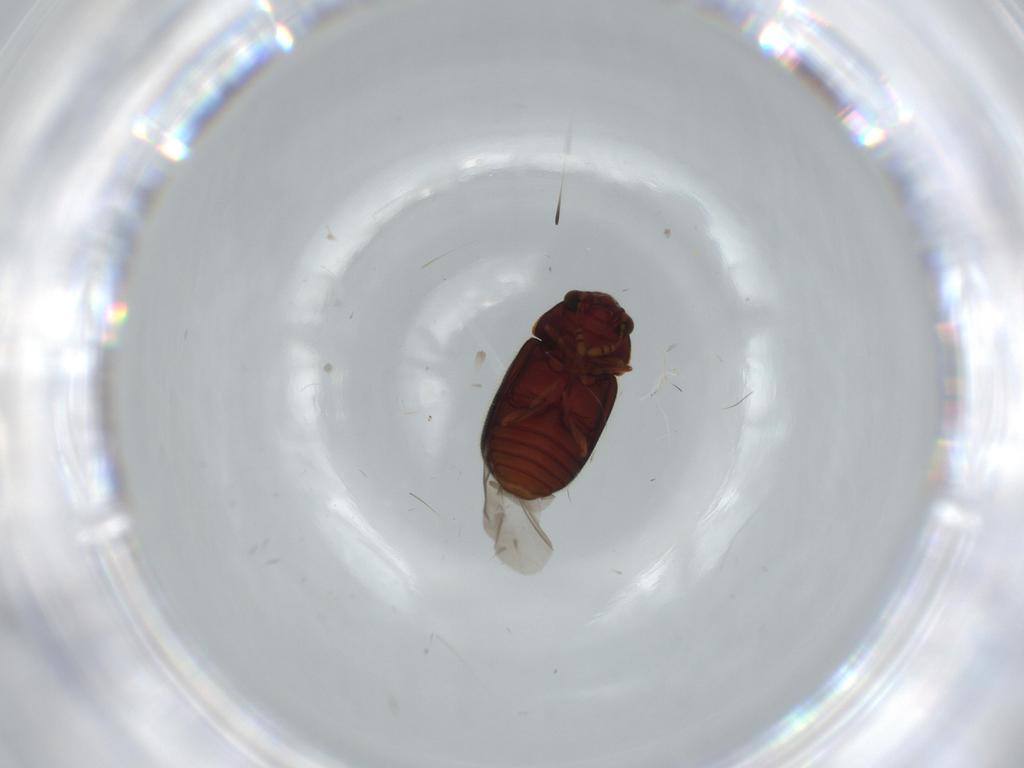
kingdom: Animalia
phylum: Arthropoda
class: Insecta
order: Coleoptera
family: Sphindidae
